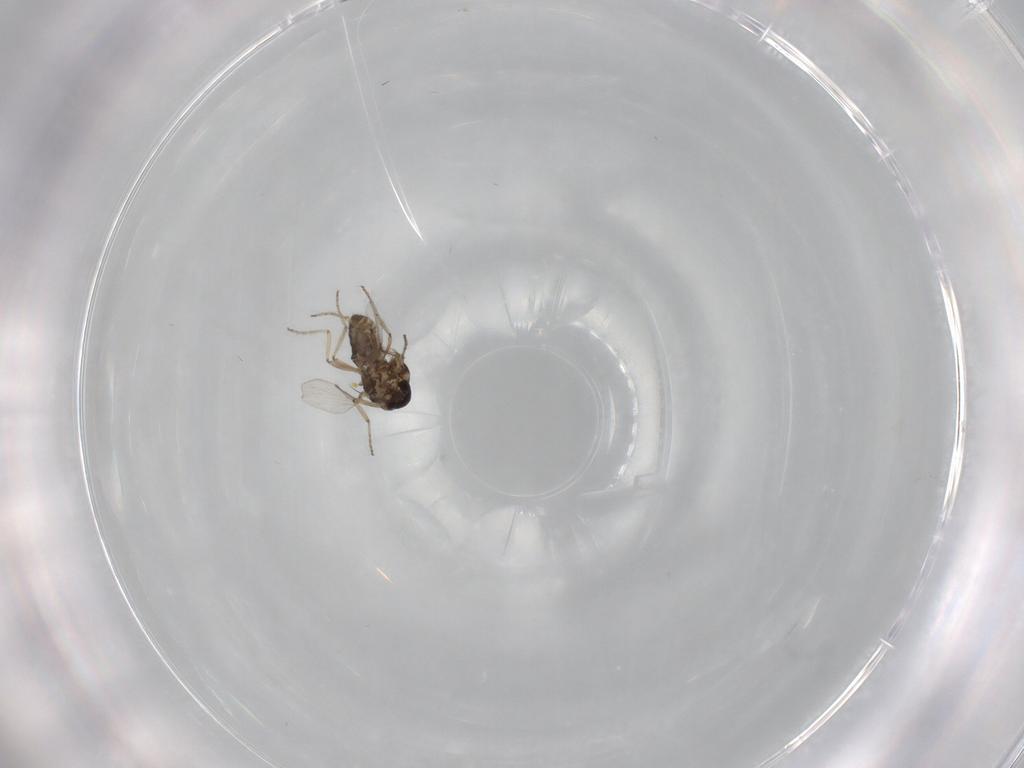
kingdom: Animalia
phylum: Arthropoda
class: Insecta
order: Diptera
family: Ceratopogonidae
